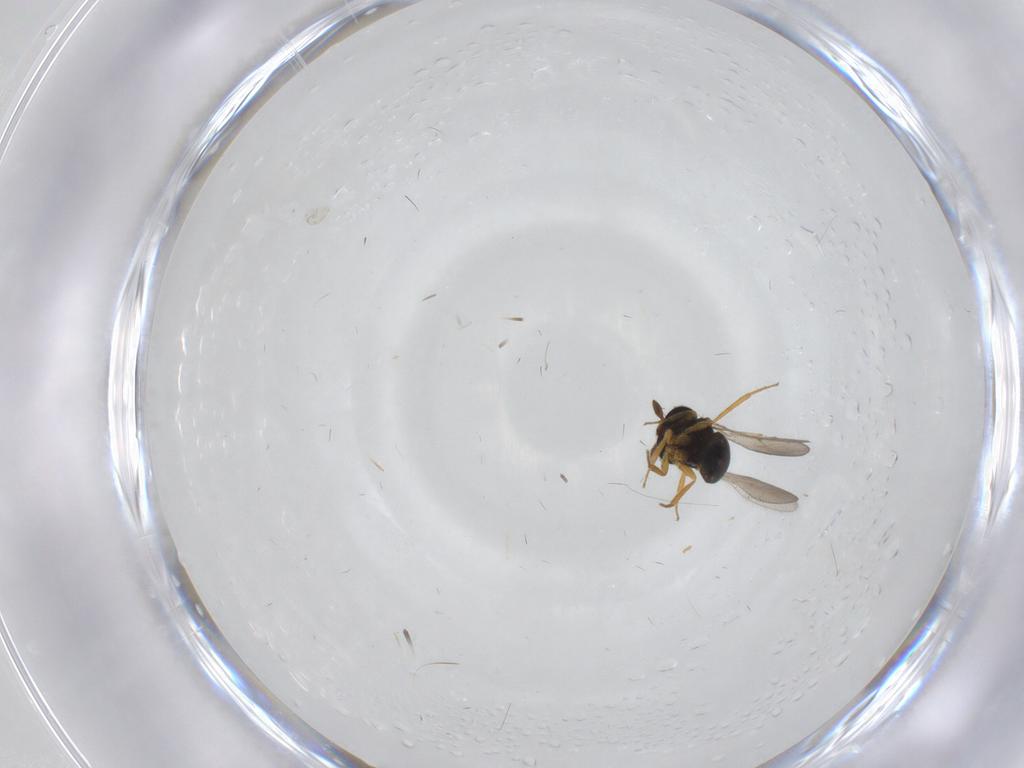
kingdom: Animalia
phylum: Arthropoda
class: Insecta
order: Hymenoptera
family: Scelionidae
